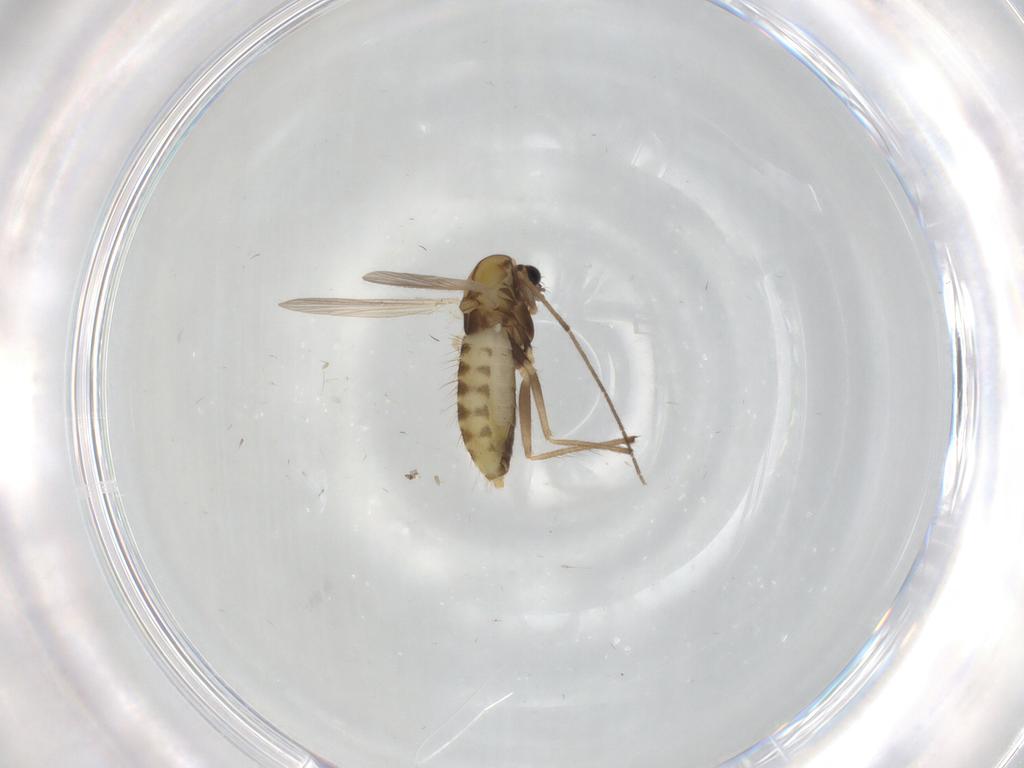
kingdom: Animalia
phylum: Arthropoda
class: Insecta
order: Diptera
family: Chironomidae
